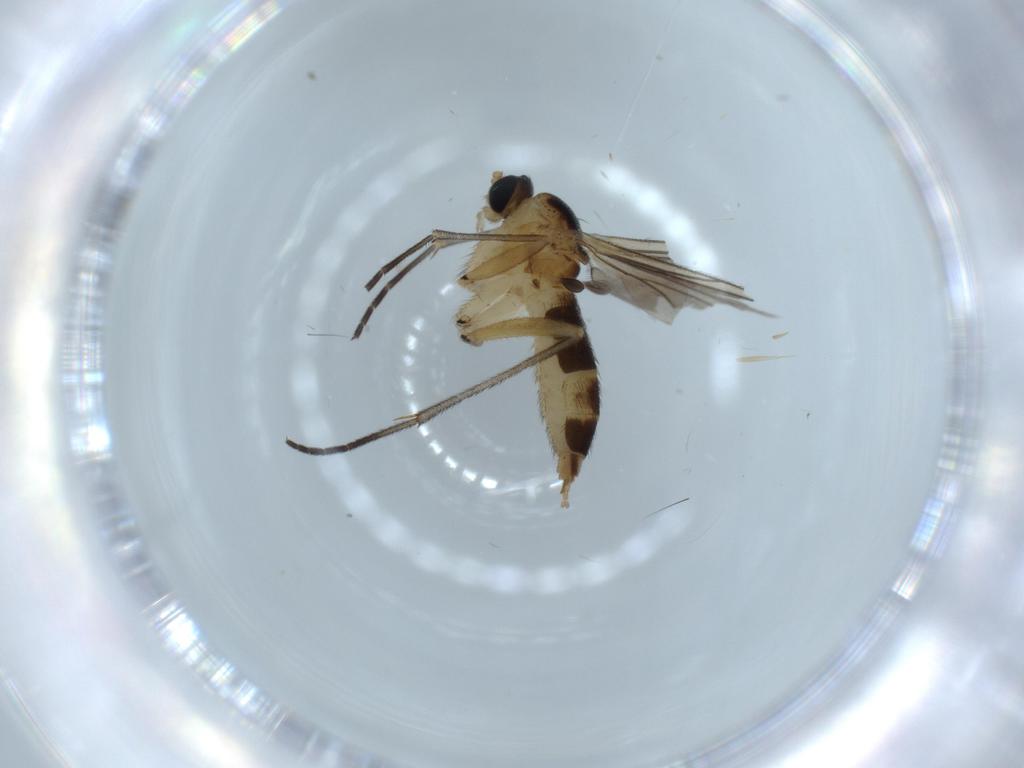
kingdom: Animalia
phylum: Arthropoda
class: Insecta
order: Diptera
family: Sciaridae
